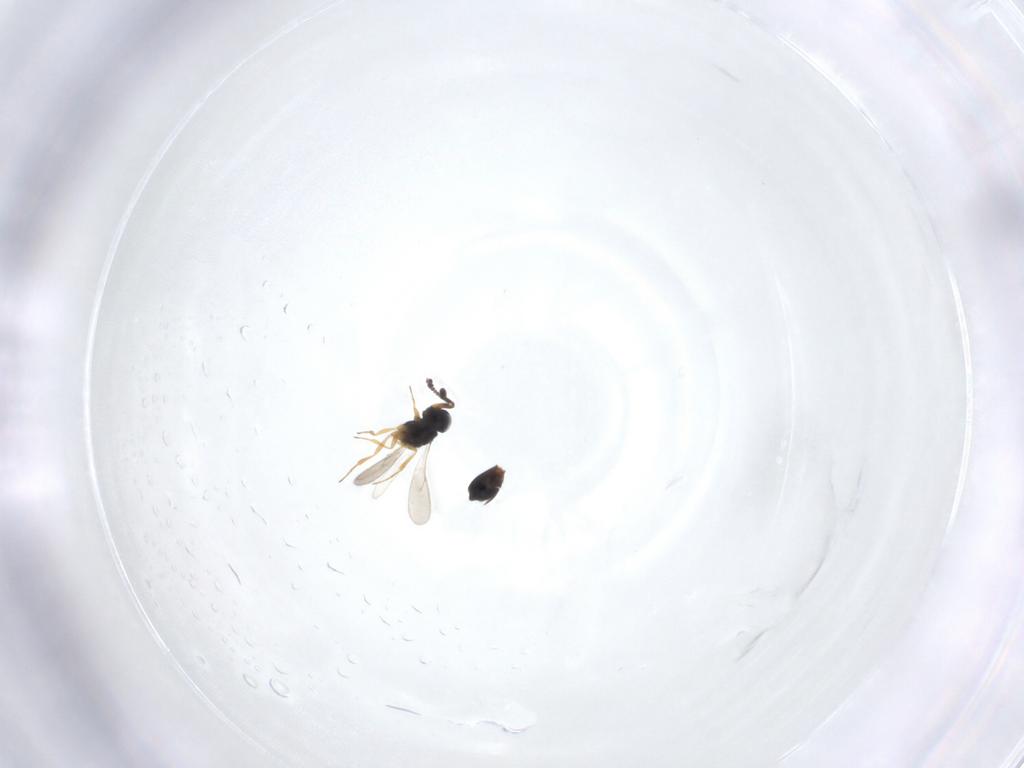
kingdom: Animalia
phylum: Arthropoda
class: Insecta
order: Hymenoptera
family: Scelionidae
